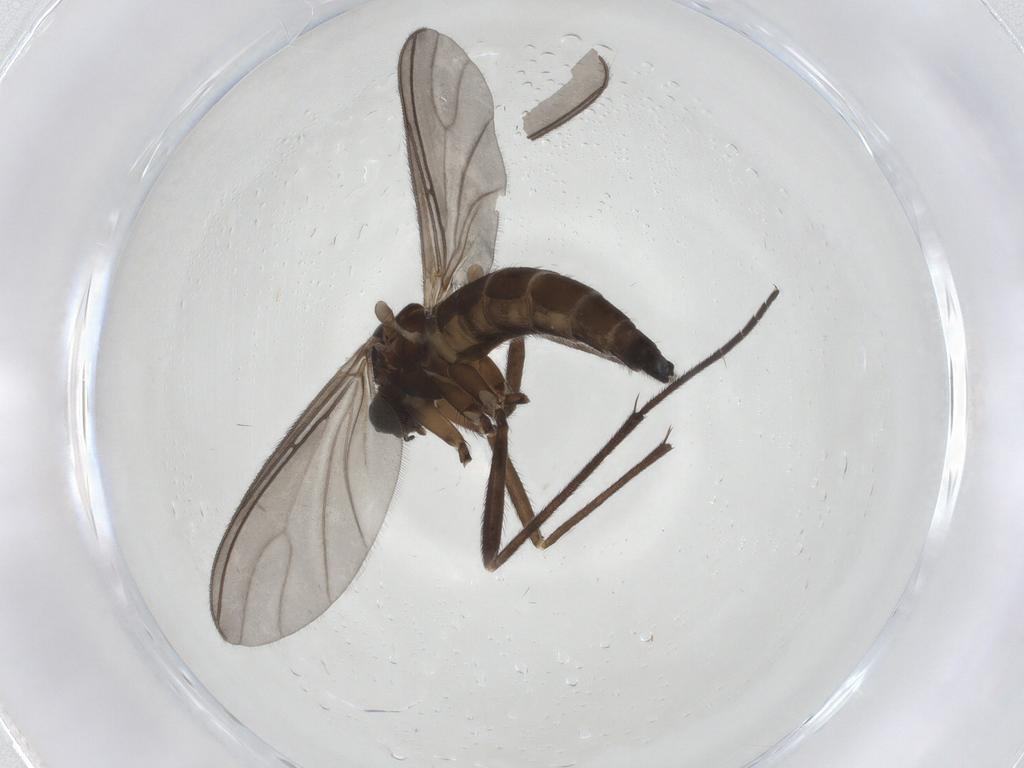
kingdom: Animalia
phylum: Arthropoda
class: Insecta
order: Diptera
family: Sciaridae
